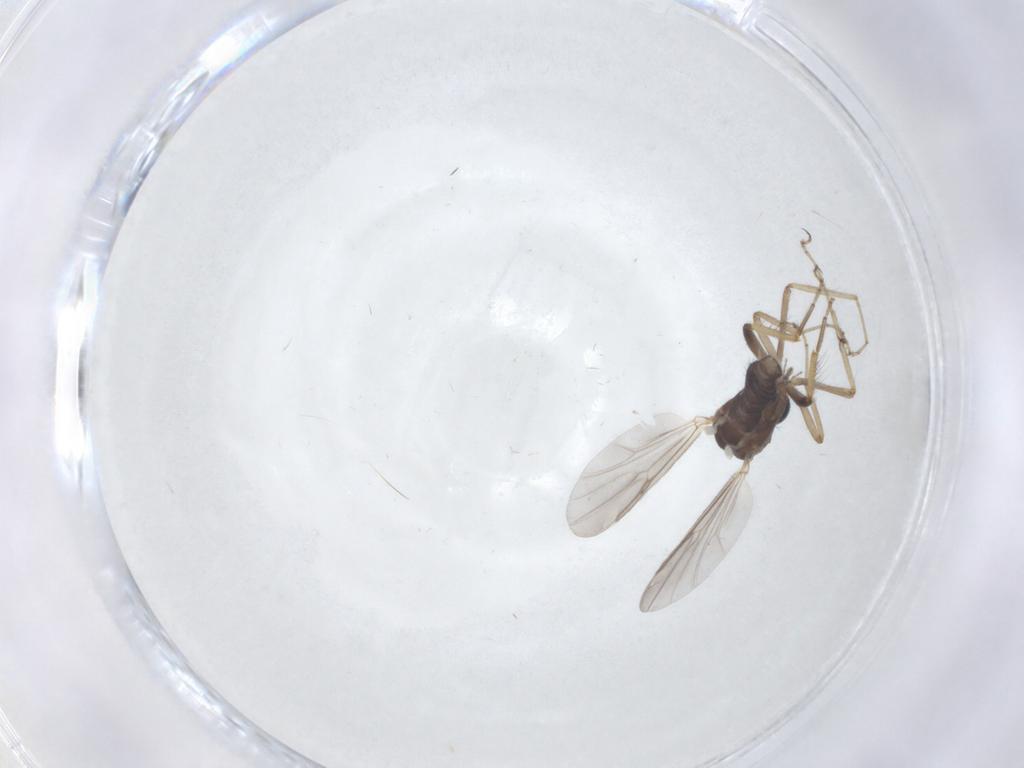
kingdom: Animalia
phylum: Arthropoda
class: Insecta
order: Diptera
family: Ceratopogonidae
